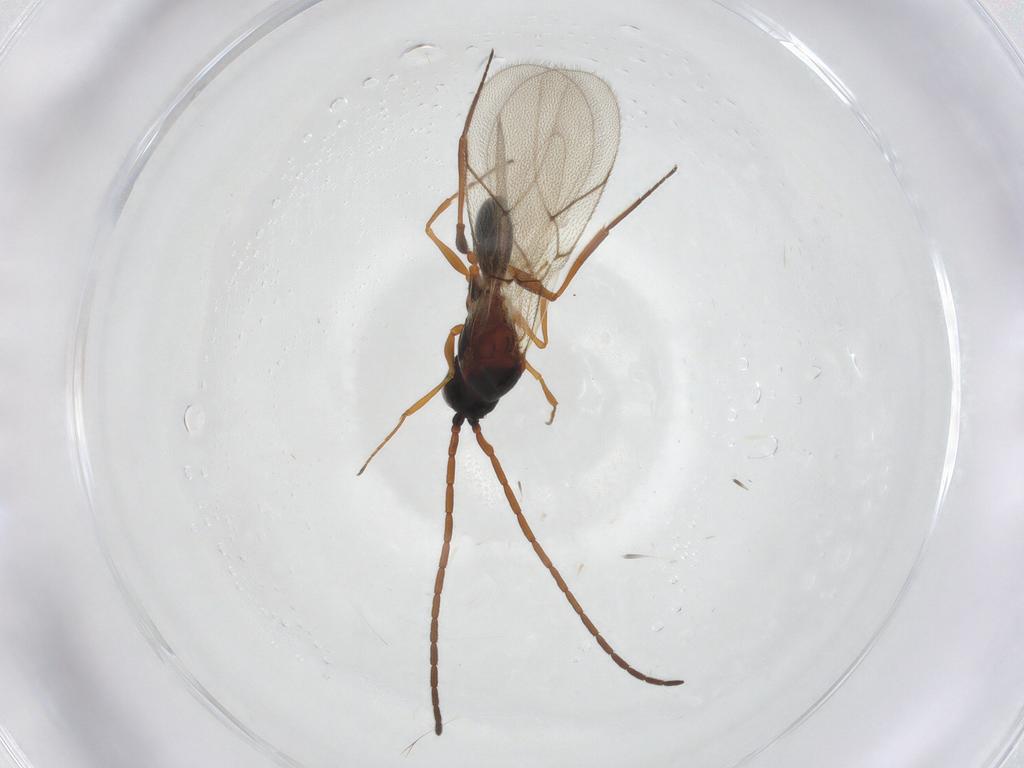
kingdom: Animalia
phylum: Arthropoda
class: Insecta
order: Hymenoptera
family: Figitidae
